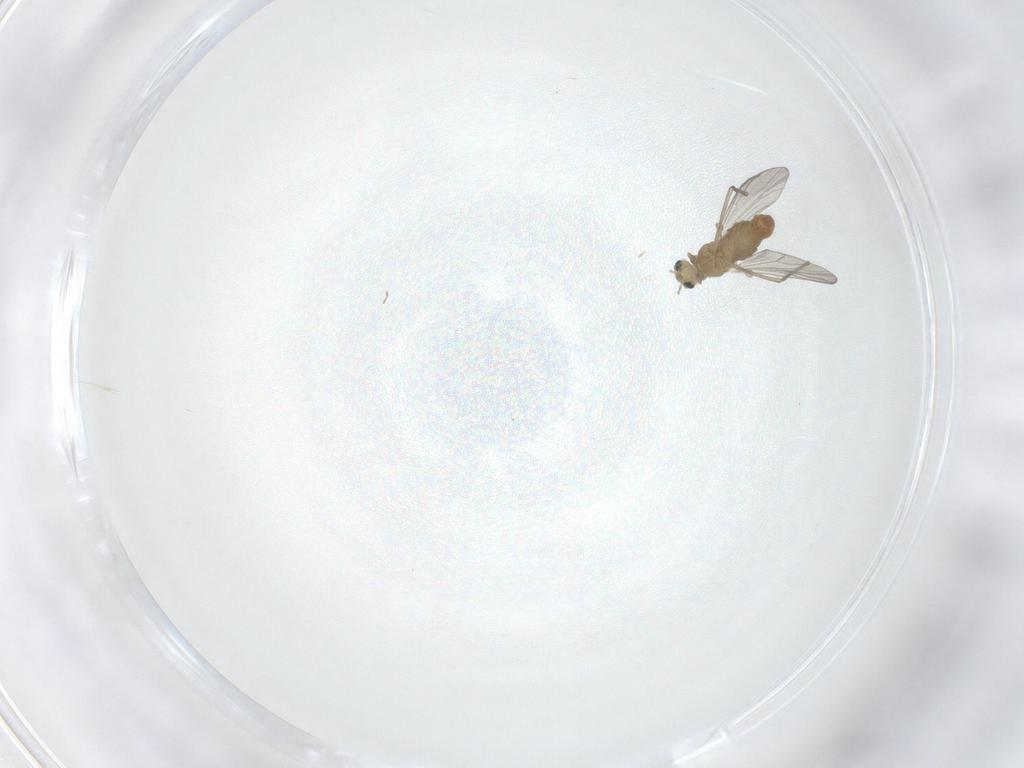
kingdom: Animalia
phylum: Arthropoda
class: Insecta
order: Diptera
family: Chironomidae
